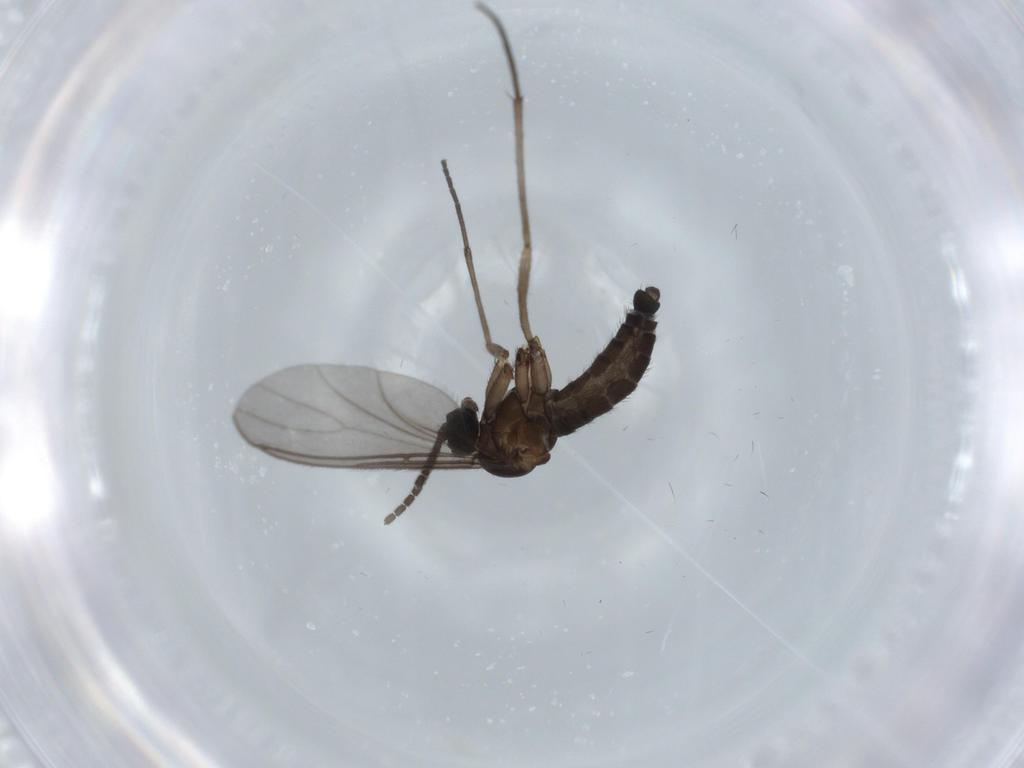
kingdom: Animalia
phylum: Arthropoda
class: Insecta
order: Diptera
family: Sciaridae
